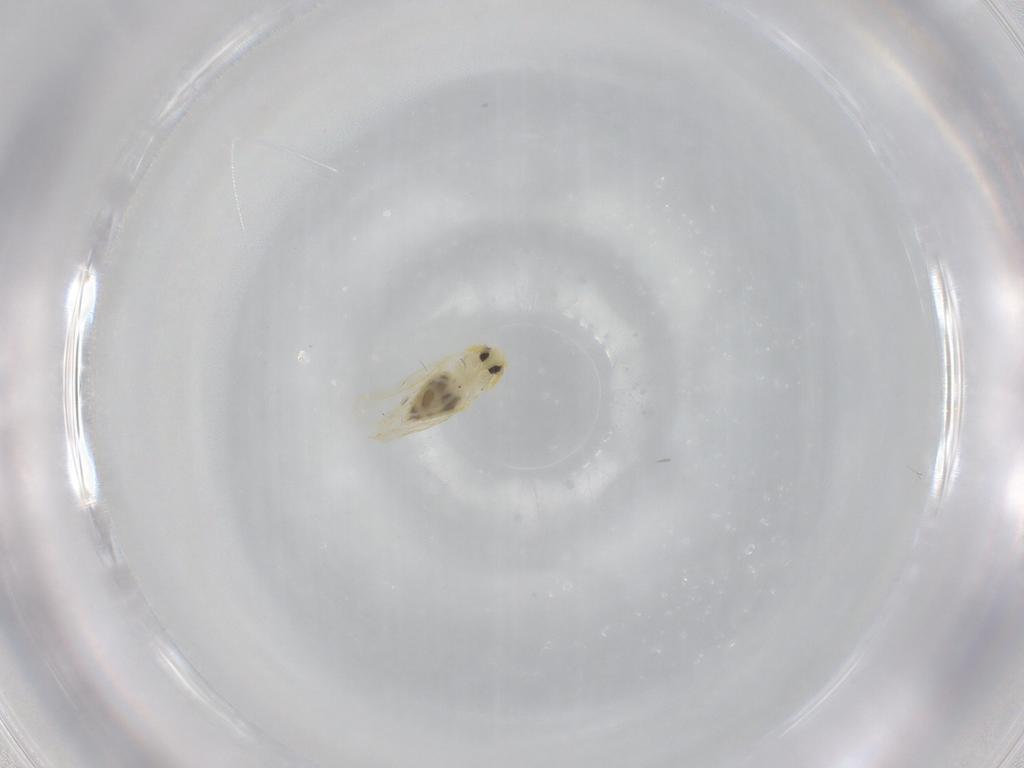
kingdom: Animalia
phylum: Arthropoda
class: Insecta
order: Hemiptera
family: Aleyrodidae
